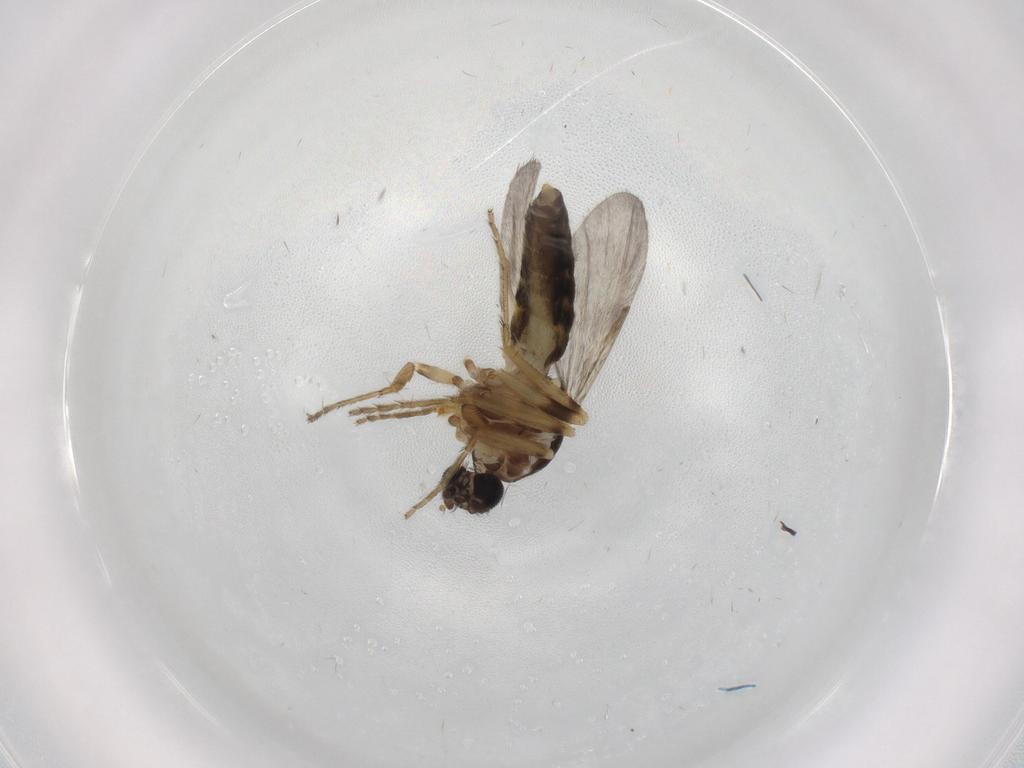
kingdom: Animalia
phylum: Arthropoda
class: Insecta
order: Diptera
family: Ceratopogonidae
